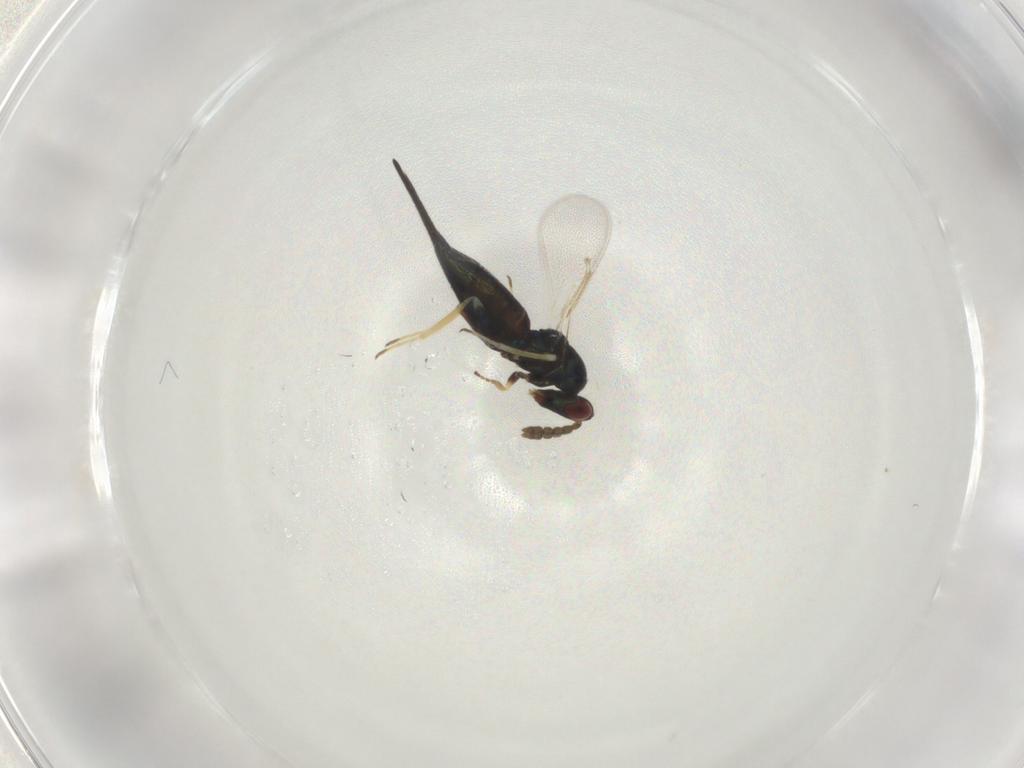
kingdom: Animalia
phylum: Arthropoda
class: Insecta
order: Hymenoptera
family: Eulophidae
